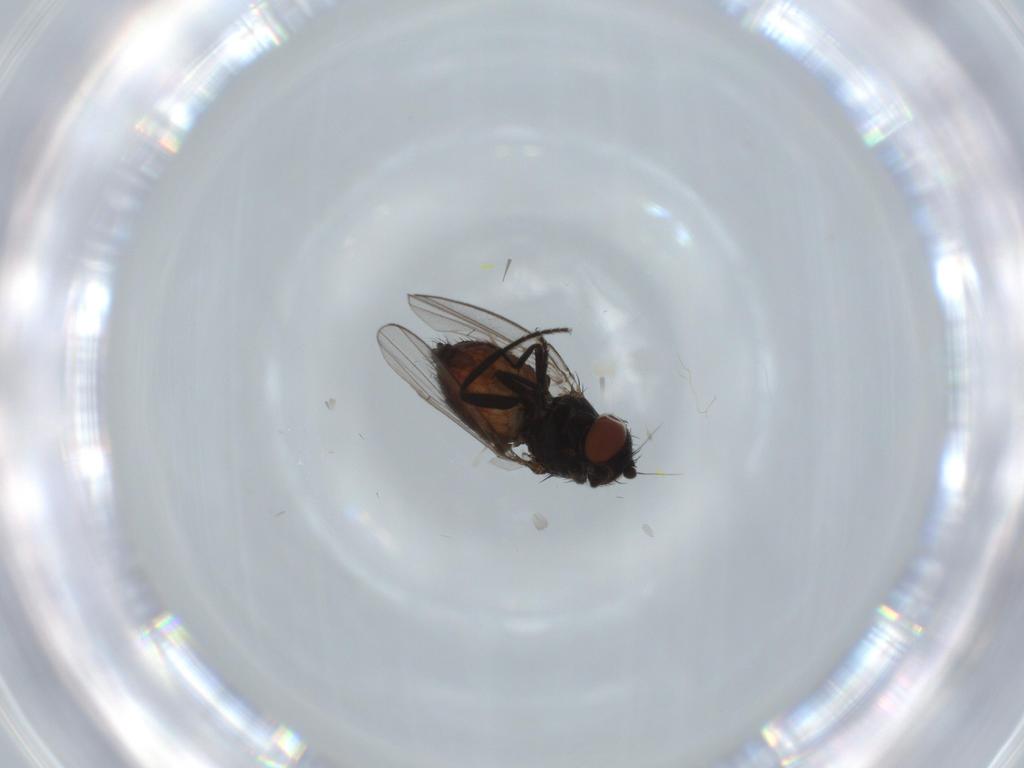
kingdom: Animalia
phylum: Arthropoda
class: Insecta
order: Diptera
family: Milichiidae
